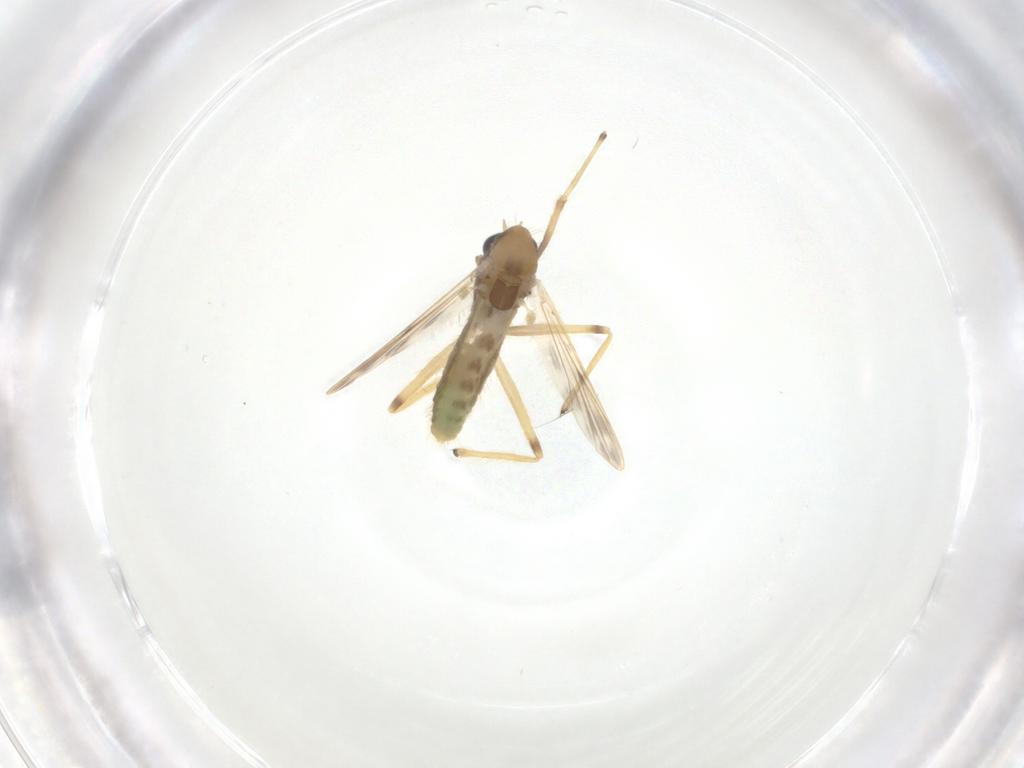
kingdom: Animalia
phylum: Arthropoda
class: Insecta
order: Diptera
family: Chironomidae
